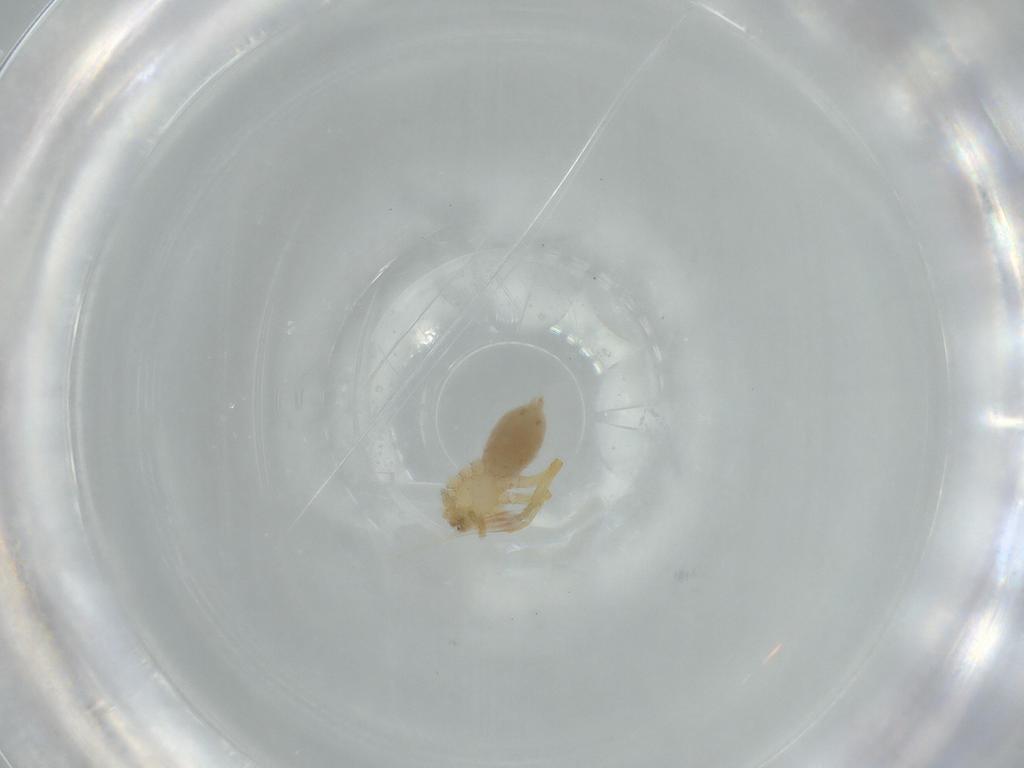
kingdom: Animalia
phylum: Arthropoda
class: Arachnida
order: Araneae
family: Oonopidae
